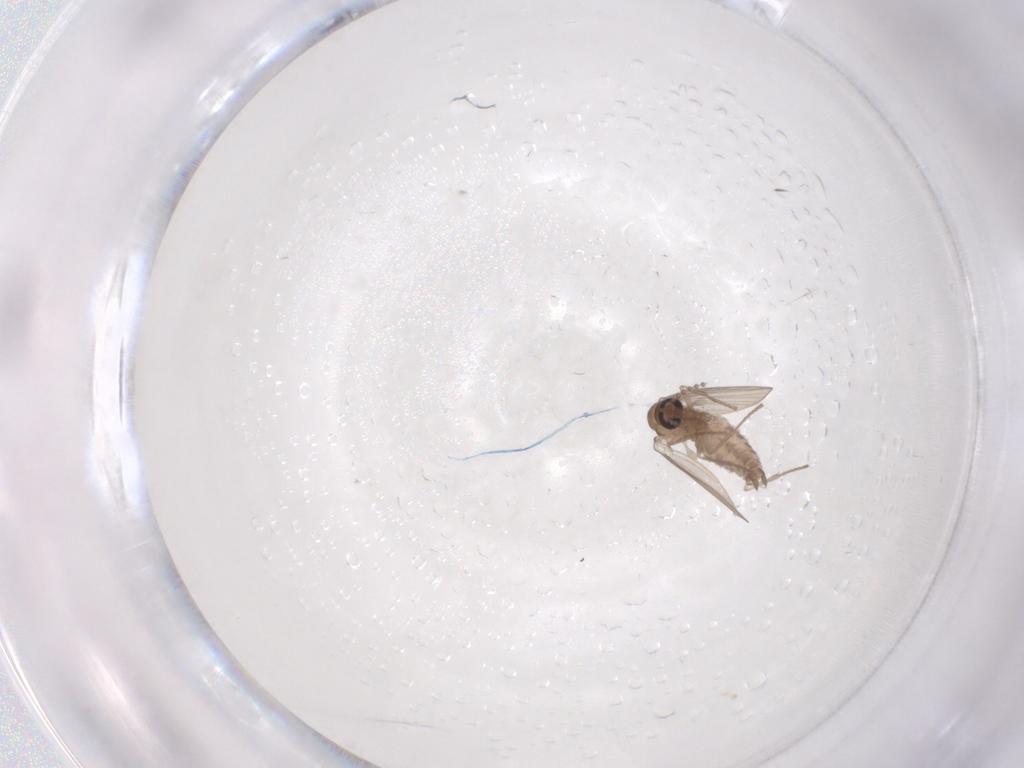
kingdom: Animalia
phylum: Arthropoda
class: Insecta
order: Diptera
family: Psychodidae
